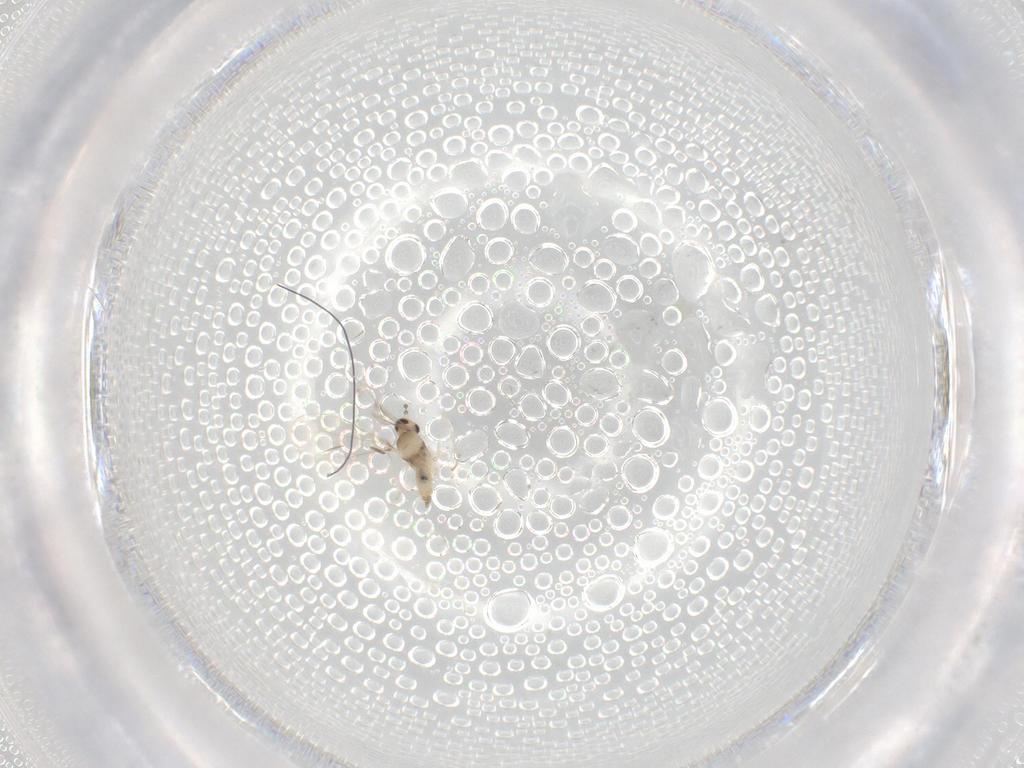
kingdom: Animalia
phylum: Arthropoda
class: Insecta
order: Diptera
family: Cecidomyiidae
